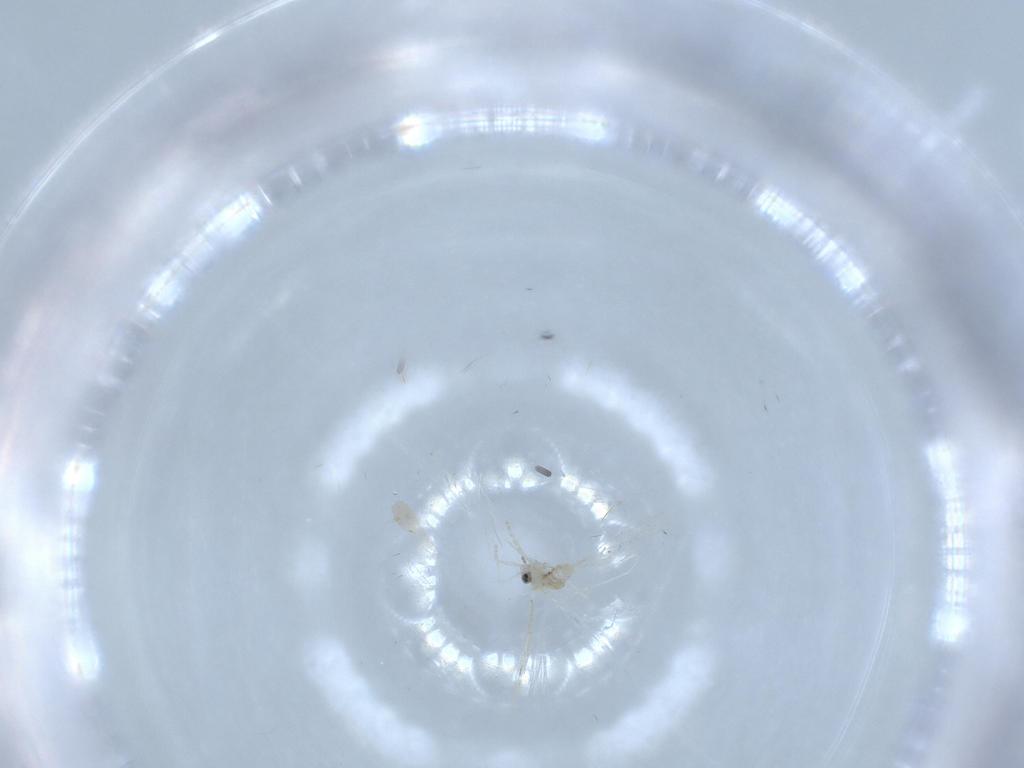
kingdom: Animalia
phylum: Arthropoda
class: Insecta
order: Diptera
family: Cecidomyiidae
